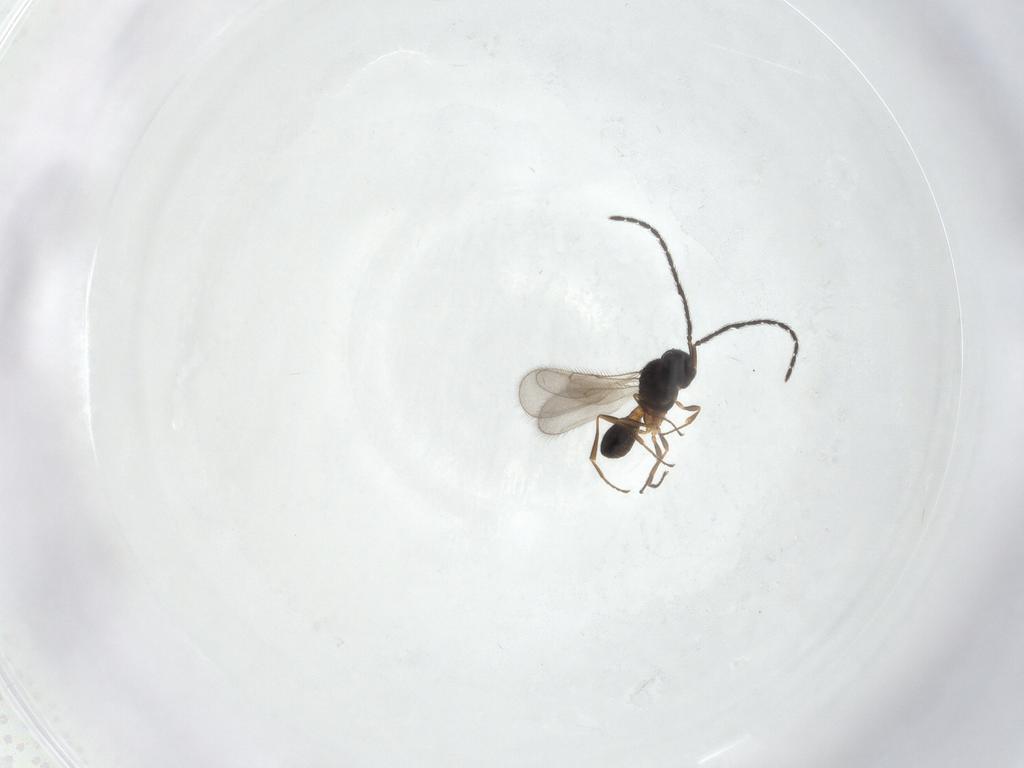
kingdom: Animalia
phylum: Arthropoda
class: Insecta
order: Hymenoptera
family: Scelionidae
